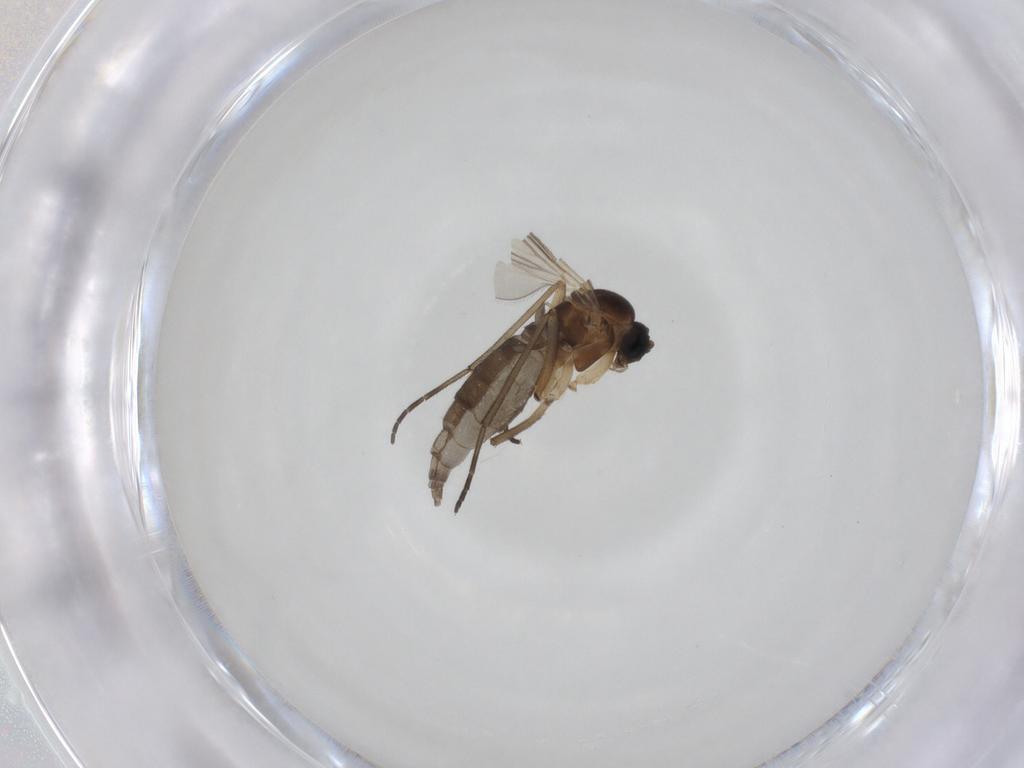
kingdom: Animalia
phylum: Arthropoda
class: Insecta
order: Diptera
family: Sciaridae
